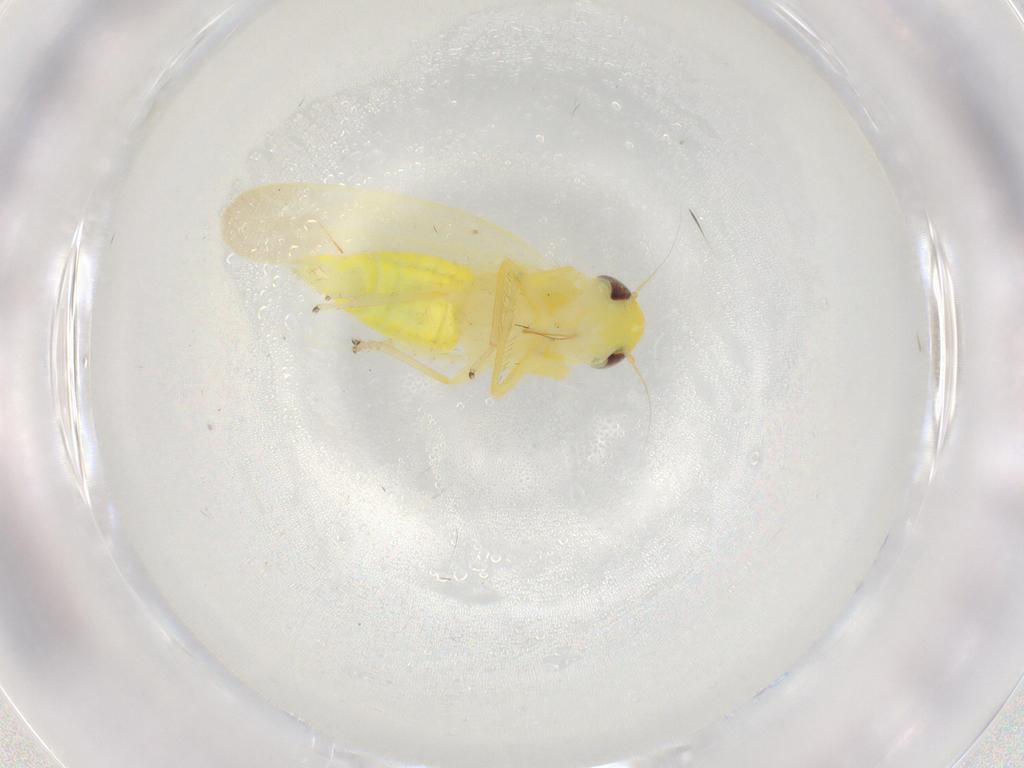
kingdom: Animalia
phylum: Arthropoda
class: Insecta
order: Hemiptera
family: Cicadellidae
